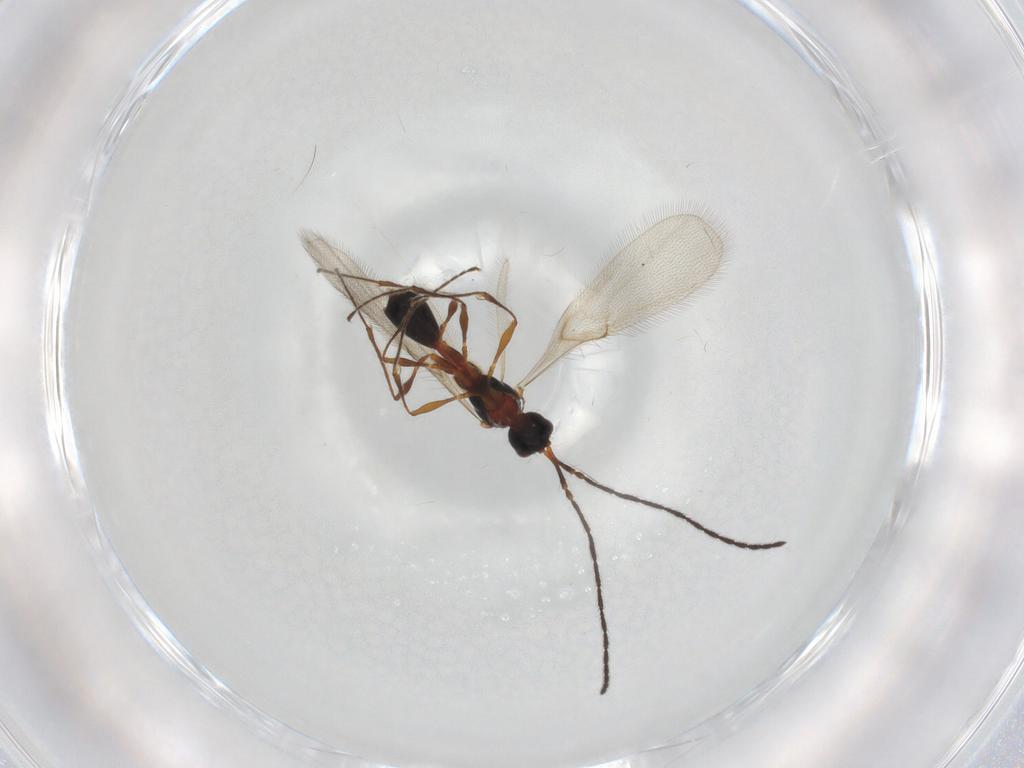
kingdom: Animalia
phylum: Arthropoda
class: Insecta
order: Hymenoptera
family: Diapriidae
